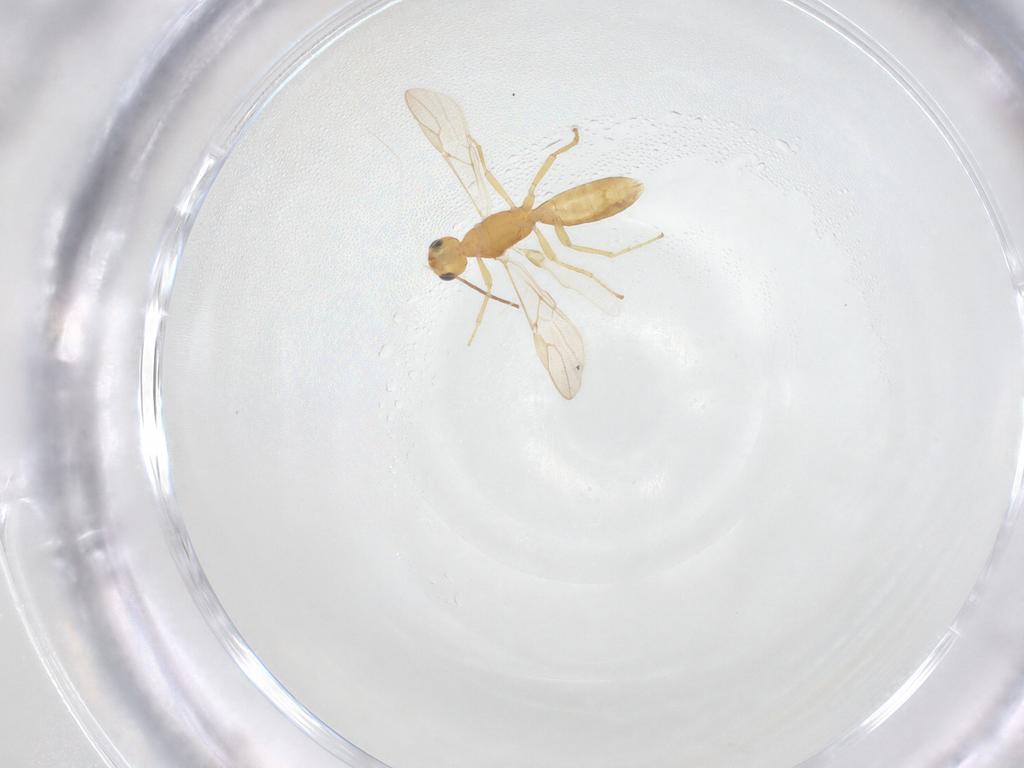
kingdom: Animalia
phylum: Arthropoda
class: Insecta
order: Hymenoptera
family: Braconidae
